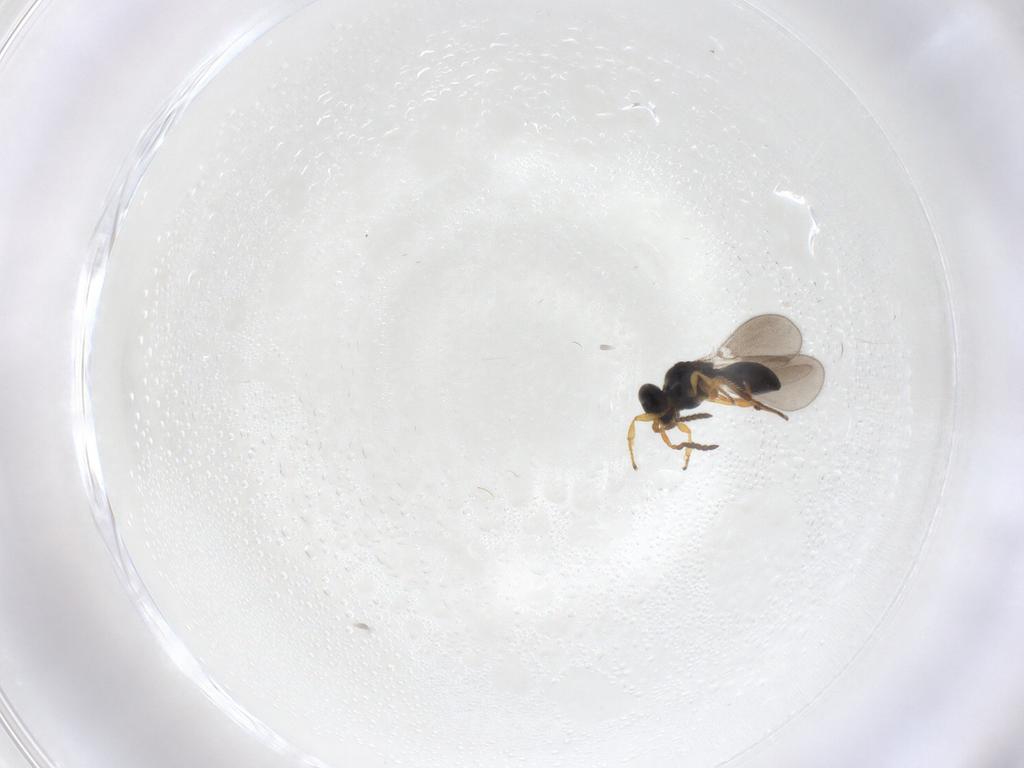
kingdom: Animalia
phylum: Arthropoda
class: Insecta
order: Hymenoptera
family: Platygastridae
